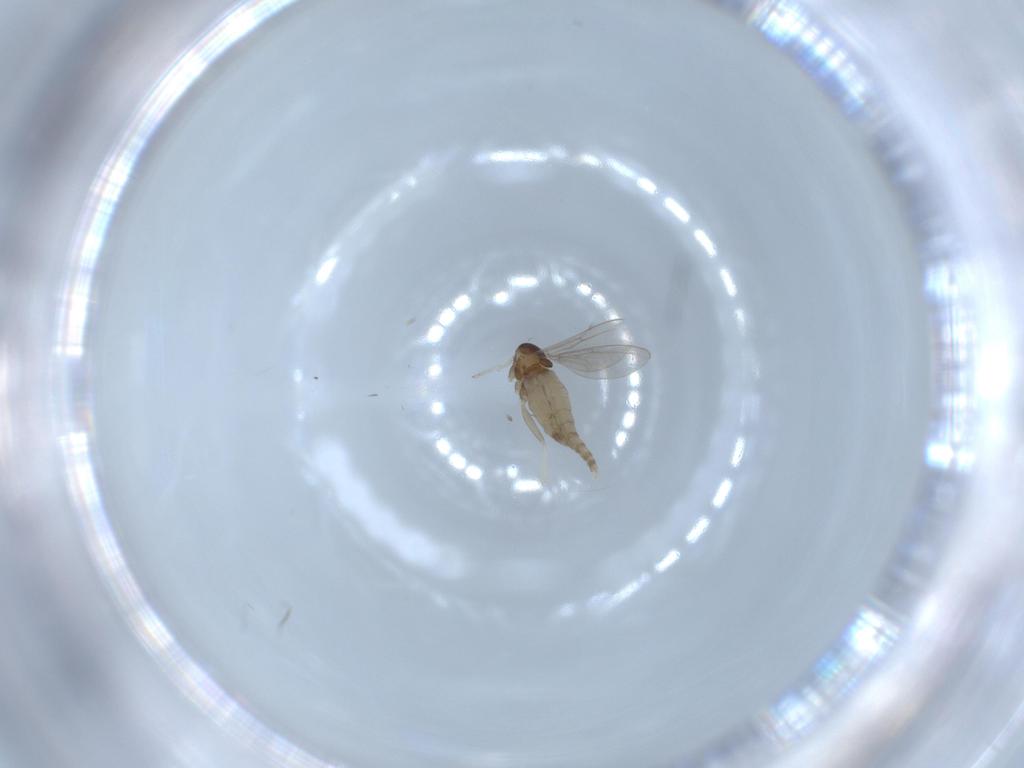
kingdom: Animalia
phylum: Arthropoda
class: Insecta
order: Diptera
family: Cecidomyiidae
